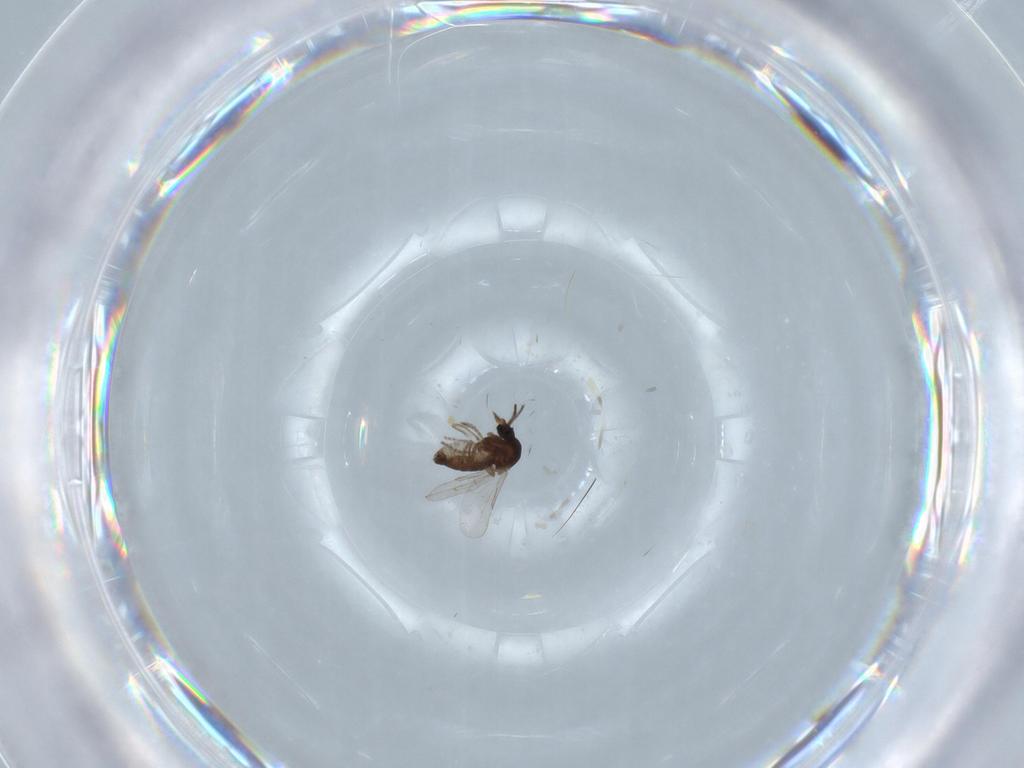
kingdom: Animalia
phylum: Arthropoda
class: Insecta
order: Diptera
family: Ceratopogonidae
